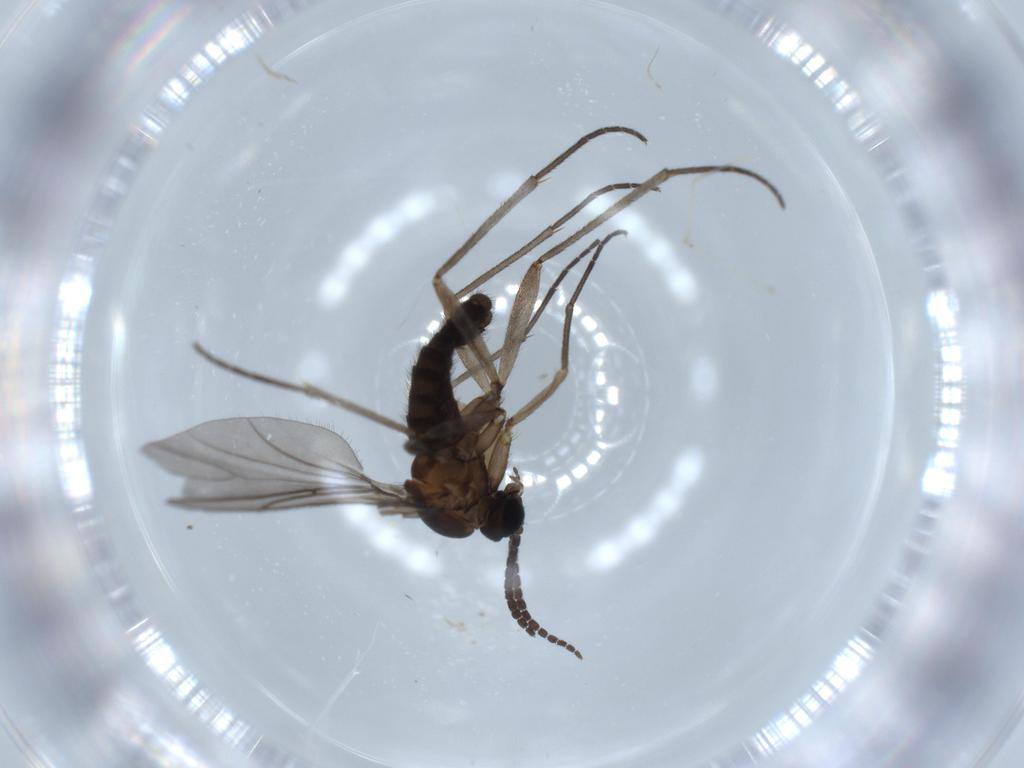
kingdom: Animalia
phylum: Arthropoda
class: Insecta
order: Diptera
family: Sciaridae
